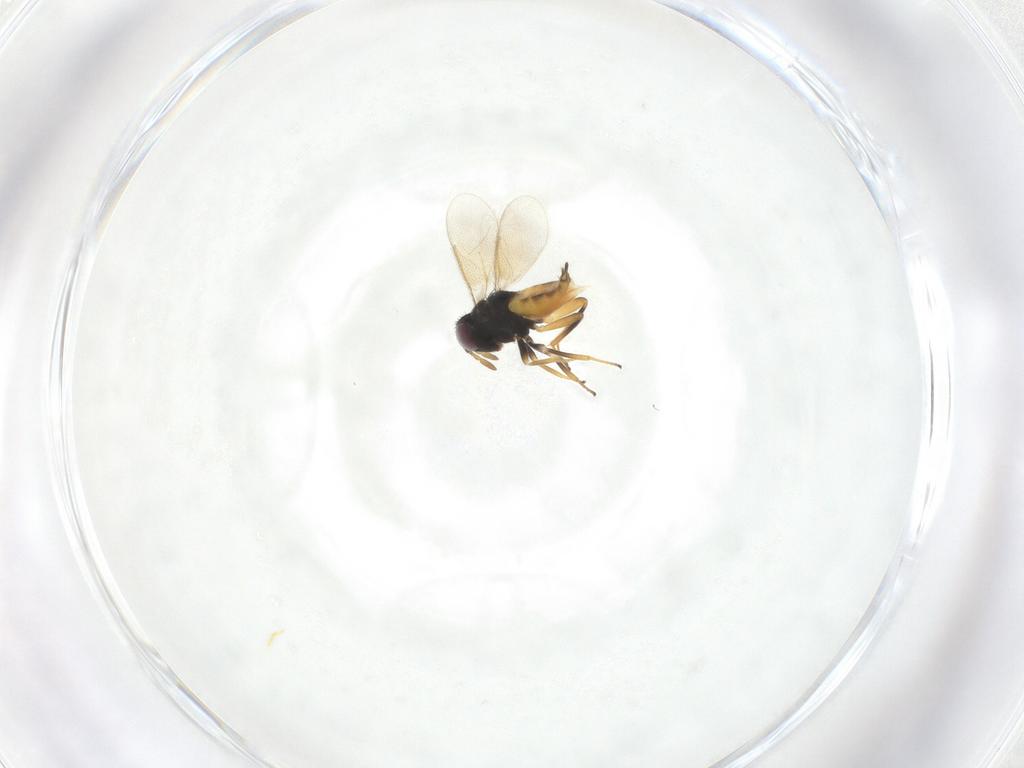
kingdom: Animalia
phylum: Arthropoda
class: Insecta
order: Hymenoptera
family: Aphelinidae
